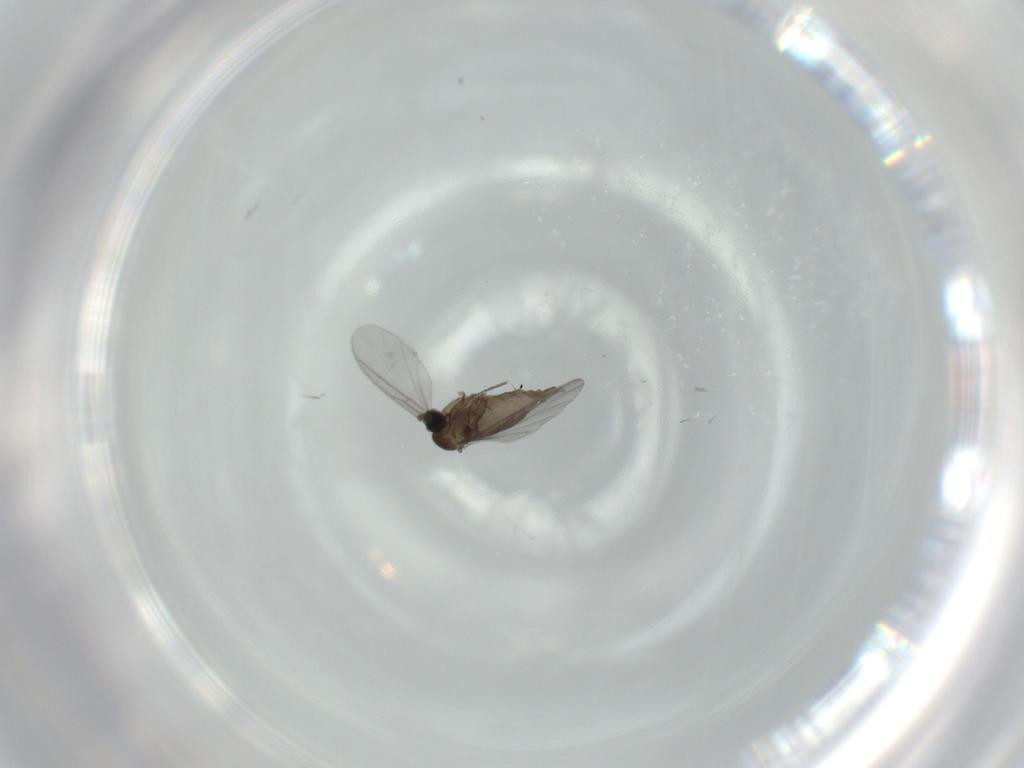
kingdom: Animalia
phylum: Arthropoda
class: Insecta
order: Diptera
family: Sciaridae
